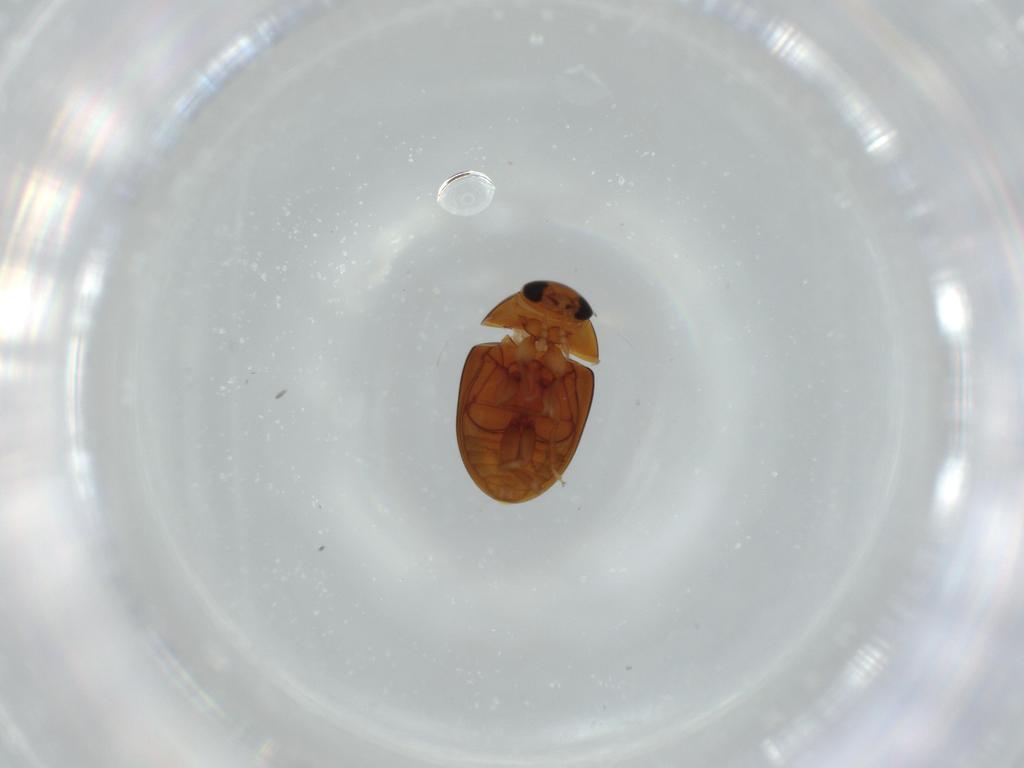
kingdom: Animalia
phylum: Arthropoda
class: Insecta
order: Coleoptera
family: Phalacridae
